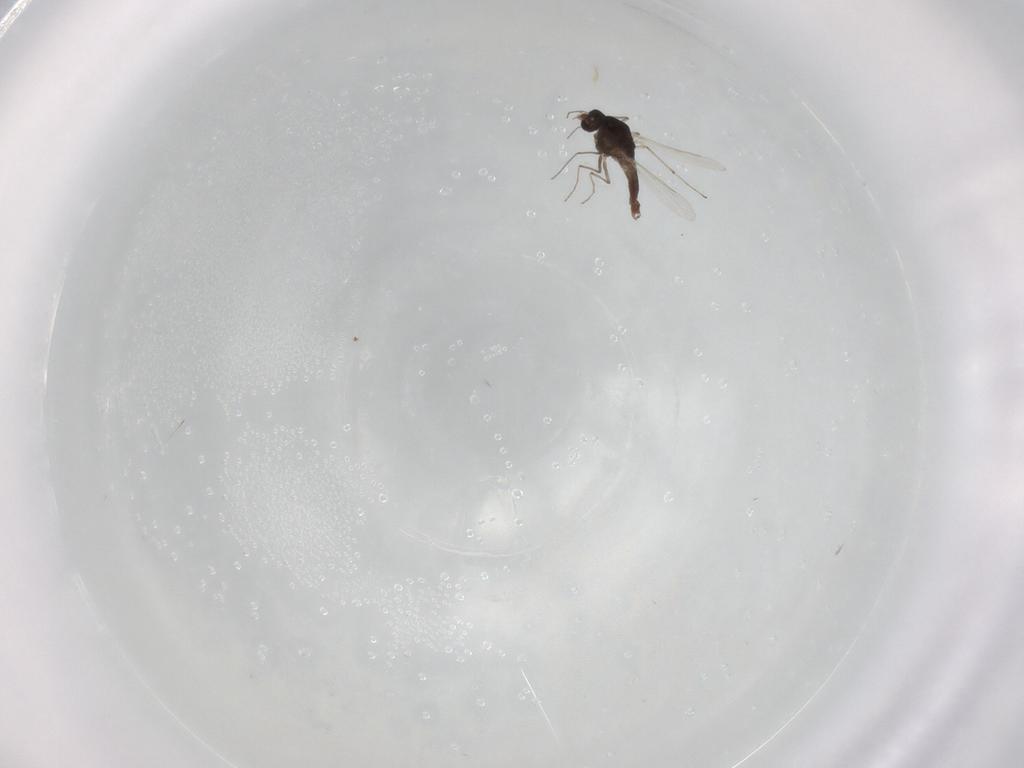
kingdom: Animalia
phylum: Arthropoda
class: Insecta
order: Diptera
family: Chironomidae
